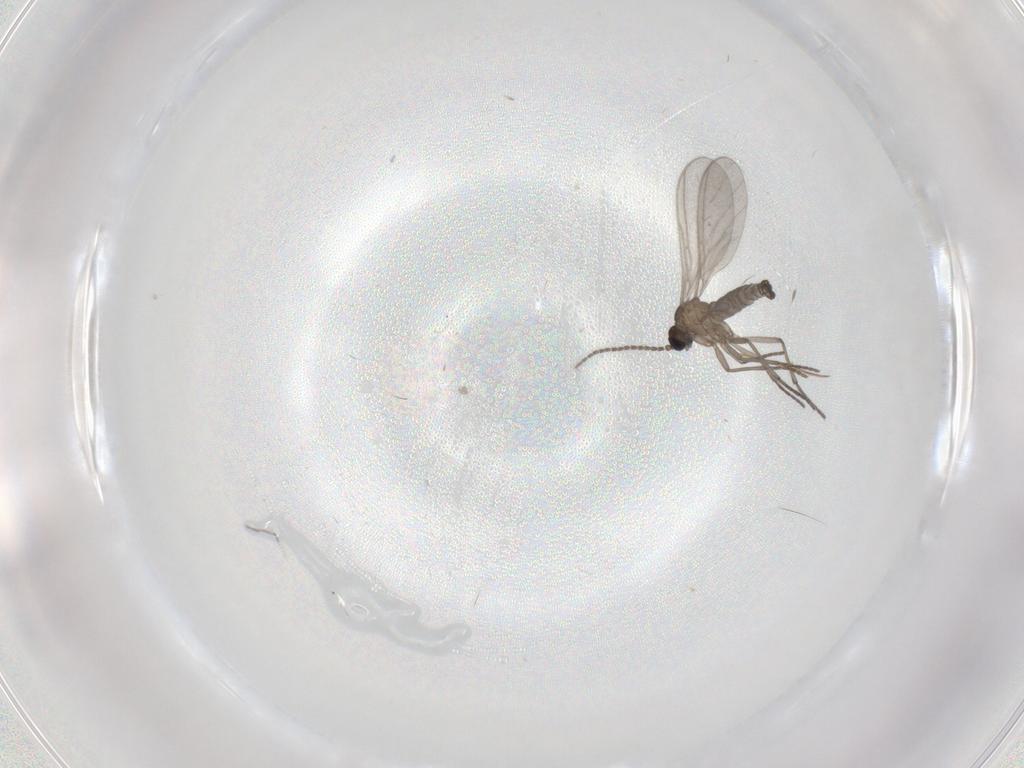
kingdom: Animalia
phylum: Arthropoda
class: Insecta
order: Diptera
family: Sciaridae
